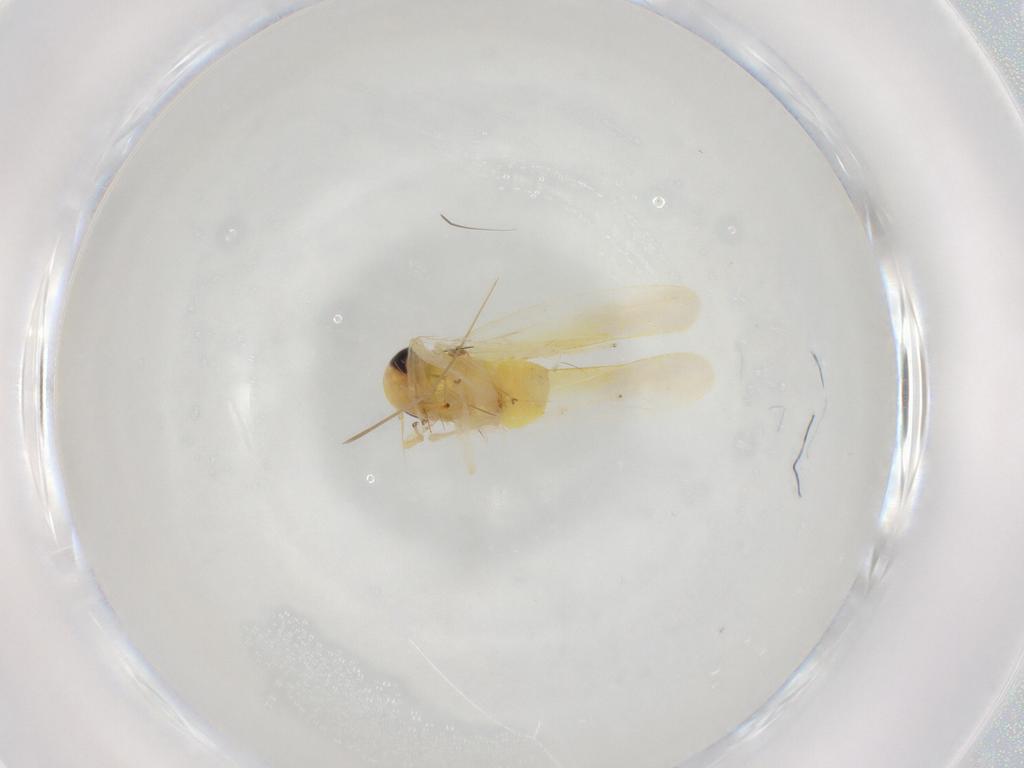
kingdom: Animalia
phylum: Arthropoda
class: Insecta
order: Hemiptera
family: Cicadellidae
